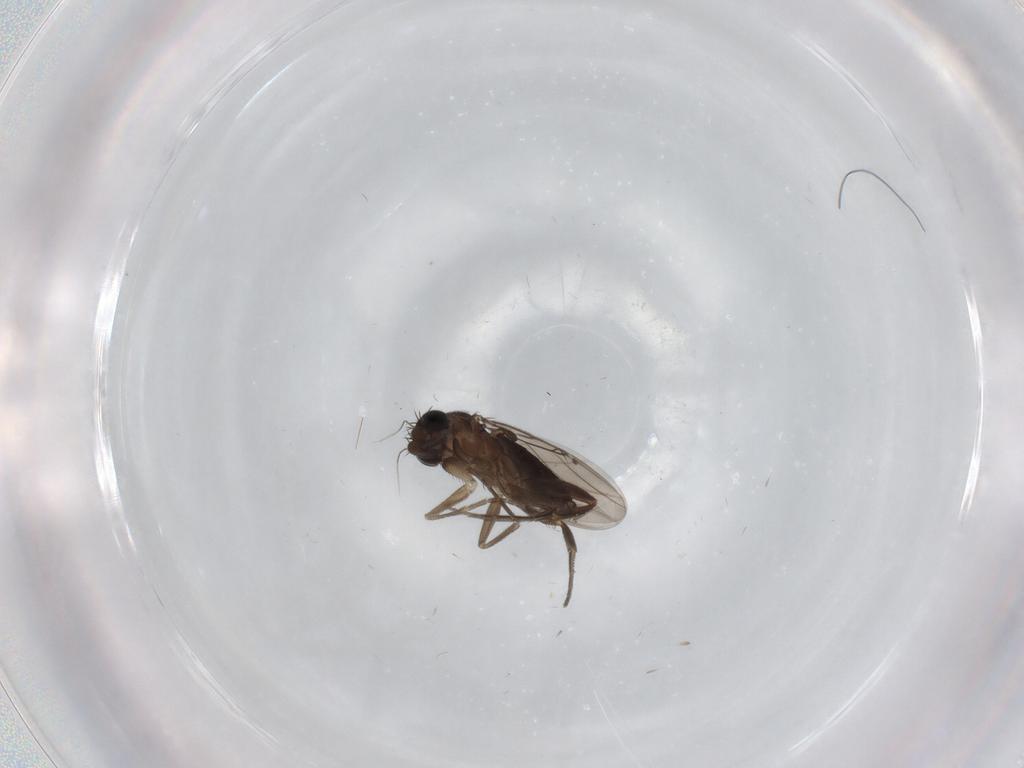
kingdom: Animalia
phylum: Arthropoda
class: Insecta
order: Diptera
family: Phoridae
